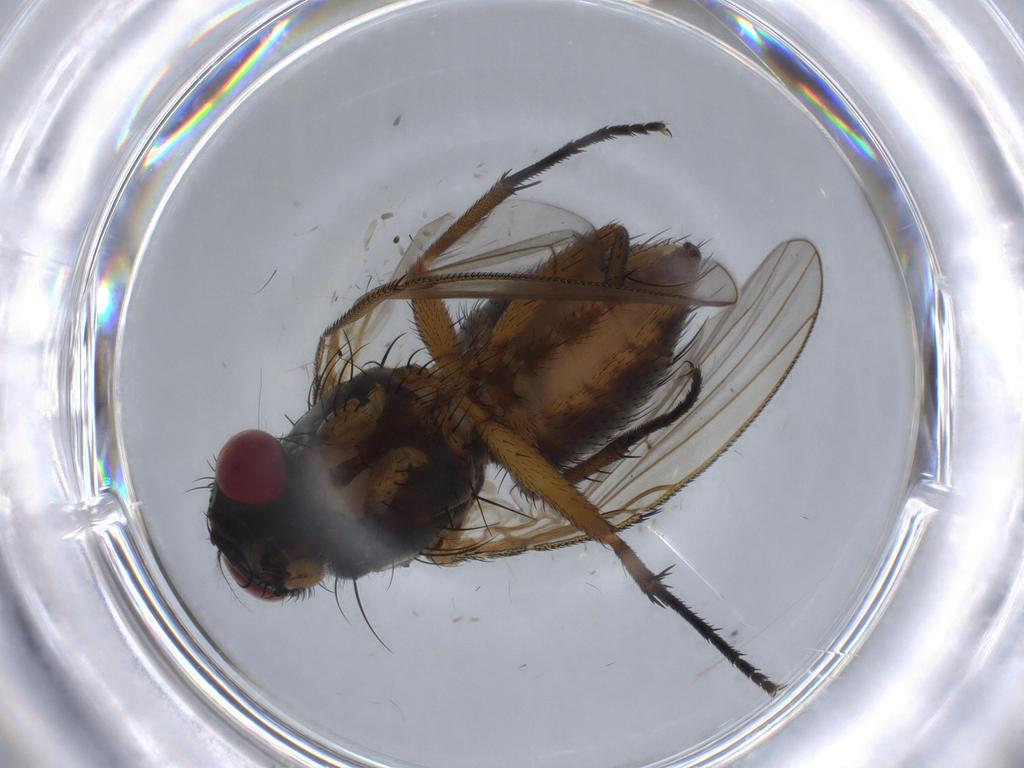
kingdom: Animalia
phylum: Arthropoda
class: Insecta
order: Diptera
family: Muscidae
